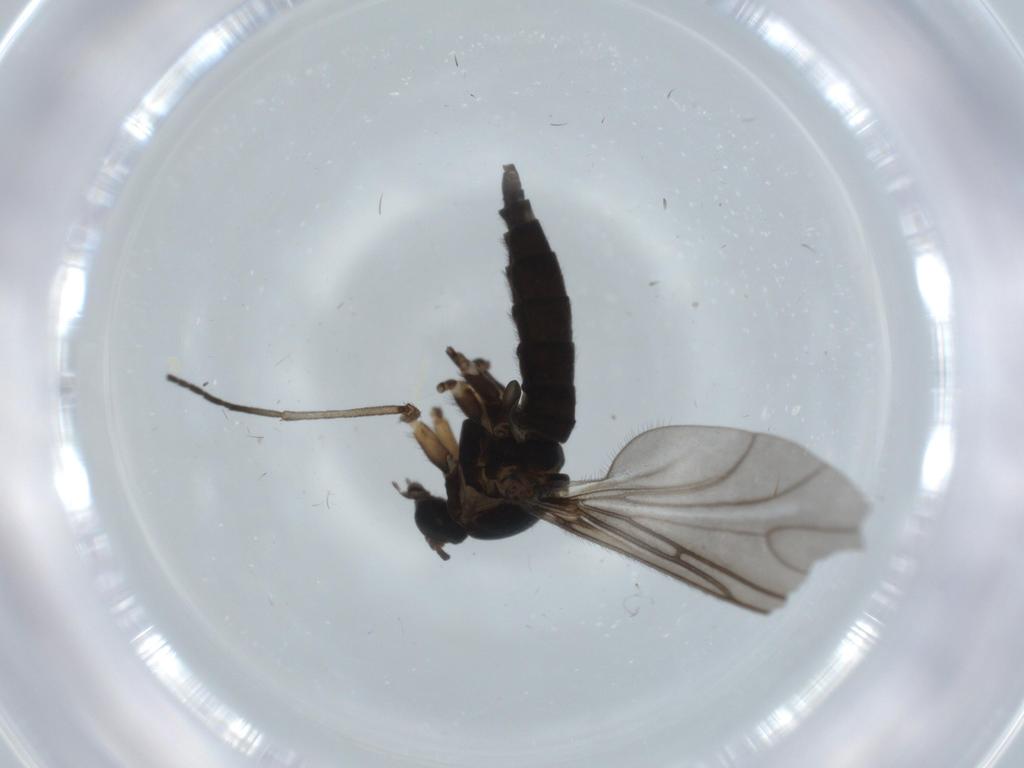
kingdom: Animalia
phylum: Arthropoda
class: Insecta
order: Diptera
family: Sciaridae
